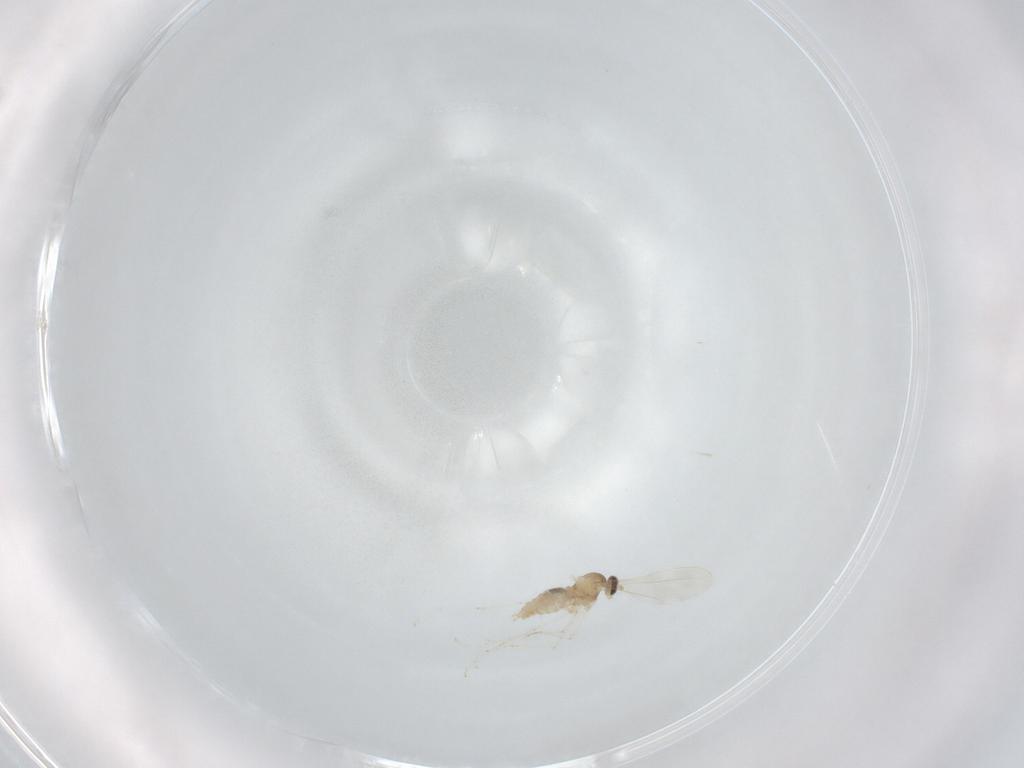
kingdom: Animalia
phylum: Arthropoda
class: Insecta
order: Diptera
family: Cecidomyiidae
